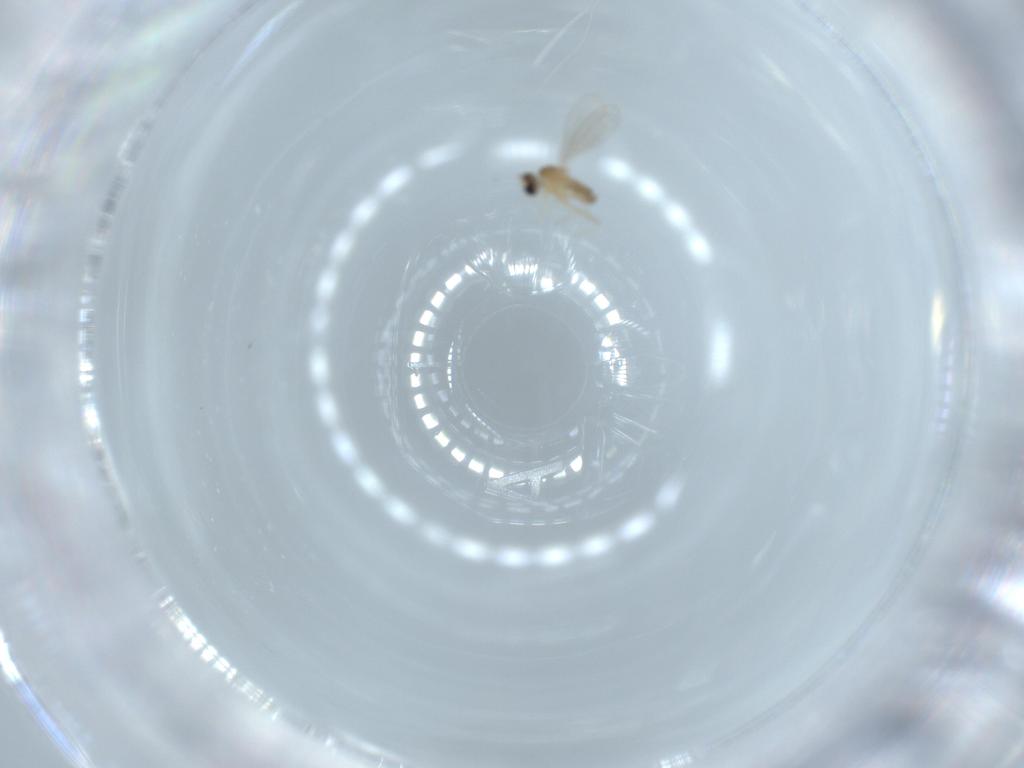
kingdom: Animalia
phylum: Arthropoda
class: Insecta
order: Diptera
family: Cecidomyiidae
